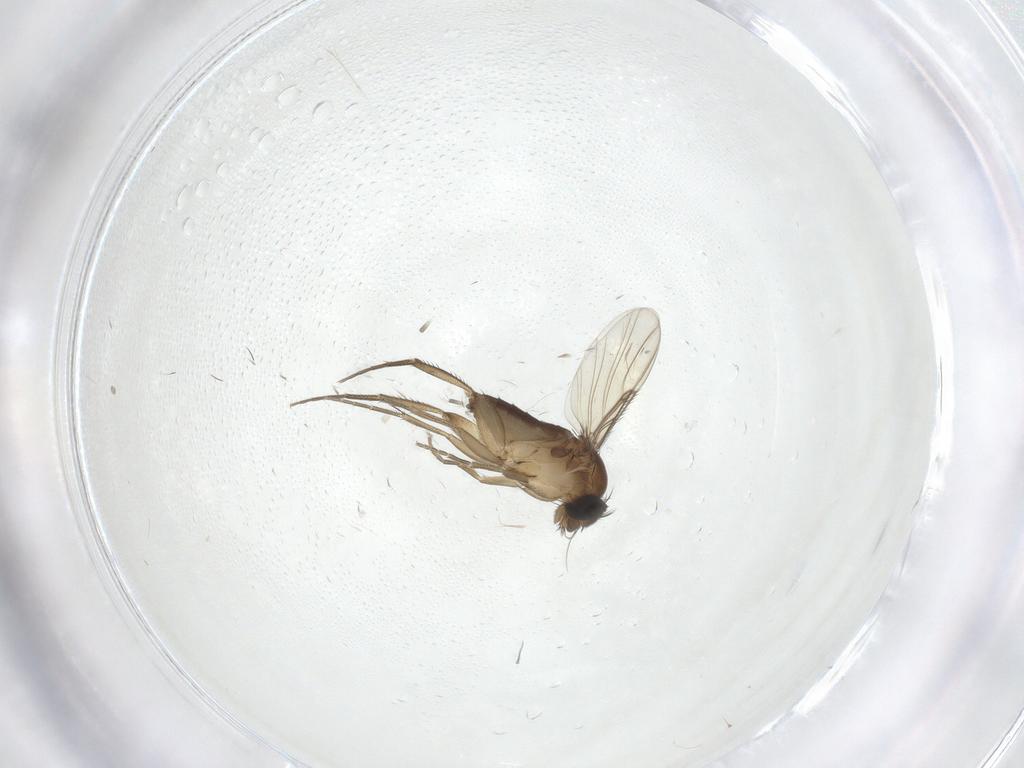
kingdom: Animalia
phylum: Arthropoda
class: Insecta
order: Diptera
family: Phoridae
